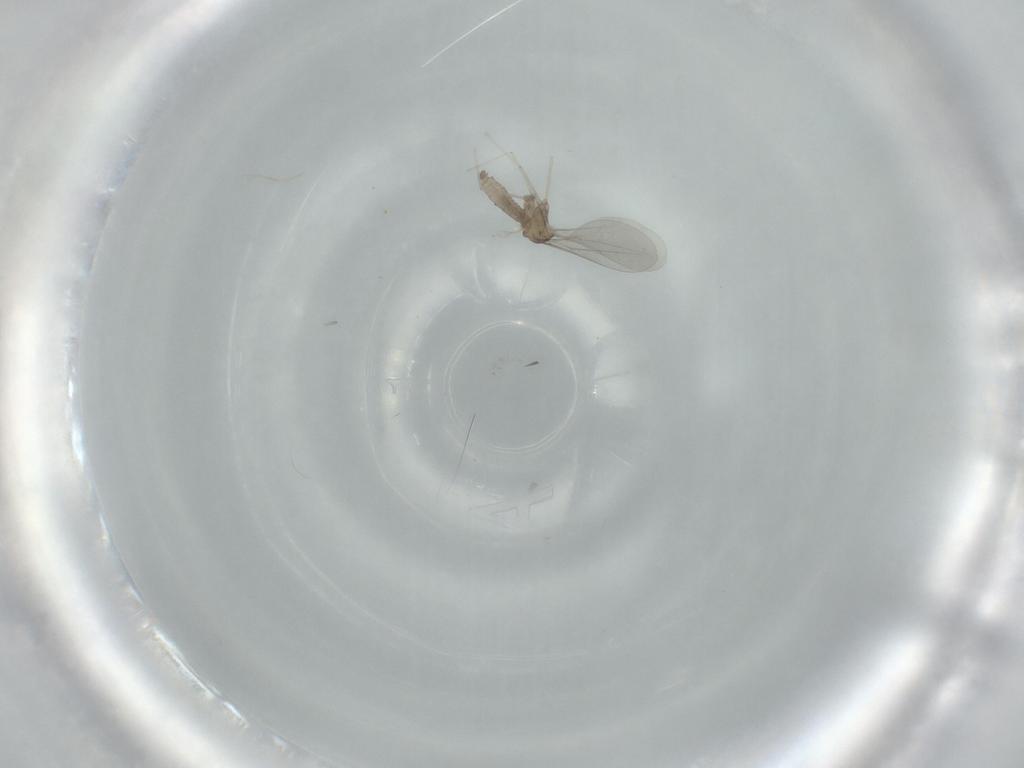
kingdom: Animalia
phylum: Arthropoda
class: Insecta
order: Diptera
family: Cecidomyiidae
